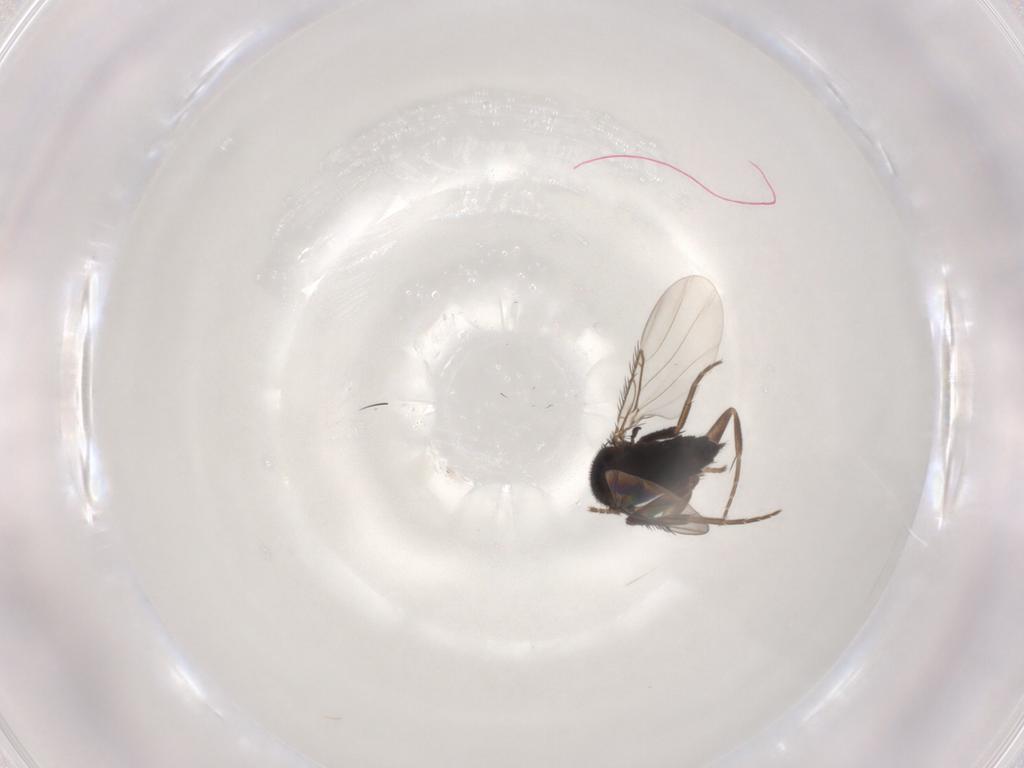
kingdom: Animalia
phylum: Arthropoda
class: Insecta
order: Diptera
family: Phoridae
